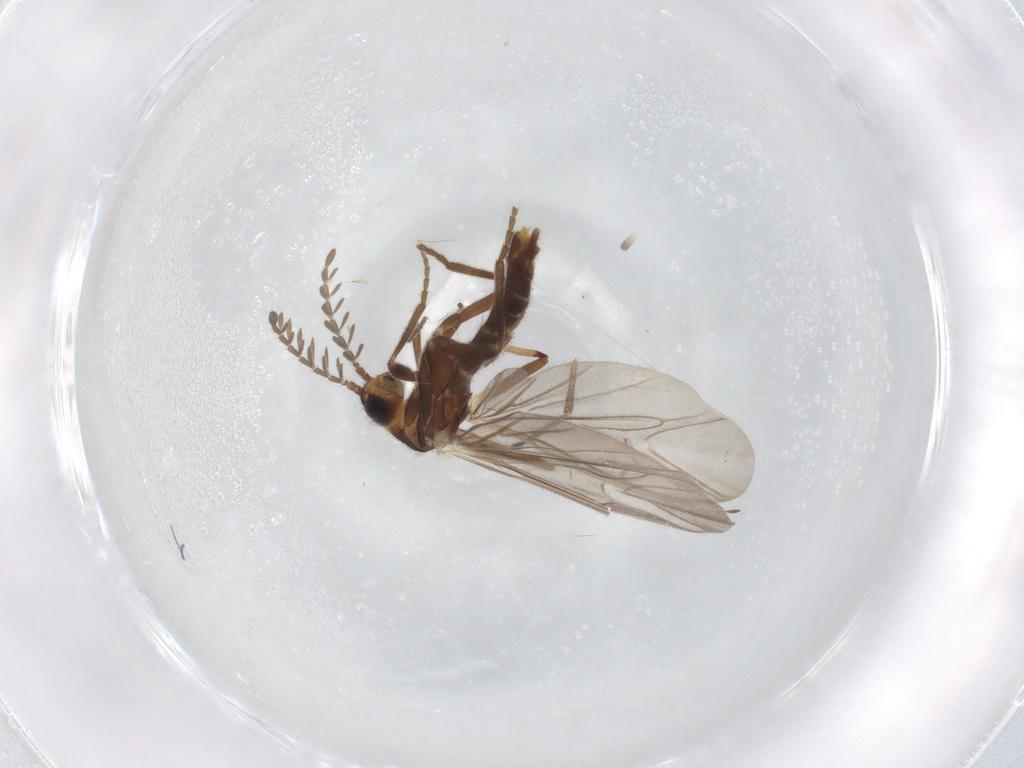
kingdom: Animalia
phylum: Arthropoda
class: Insecta
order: Coleoptera
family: Phengodidae
